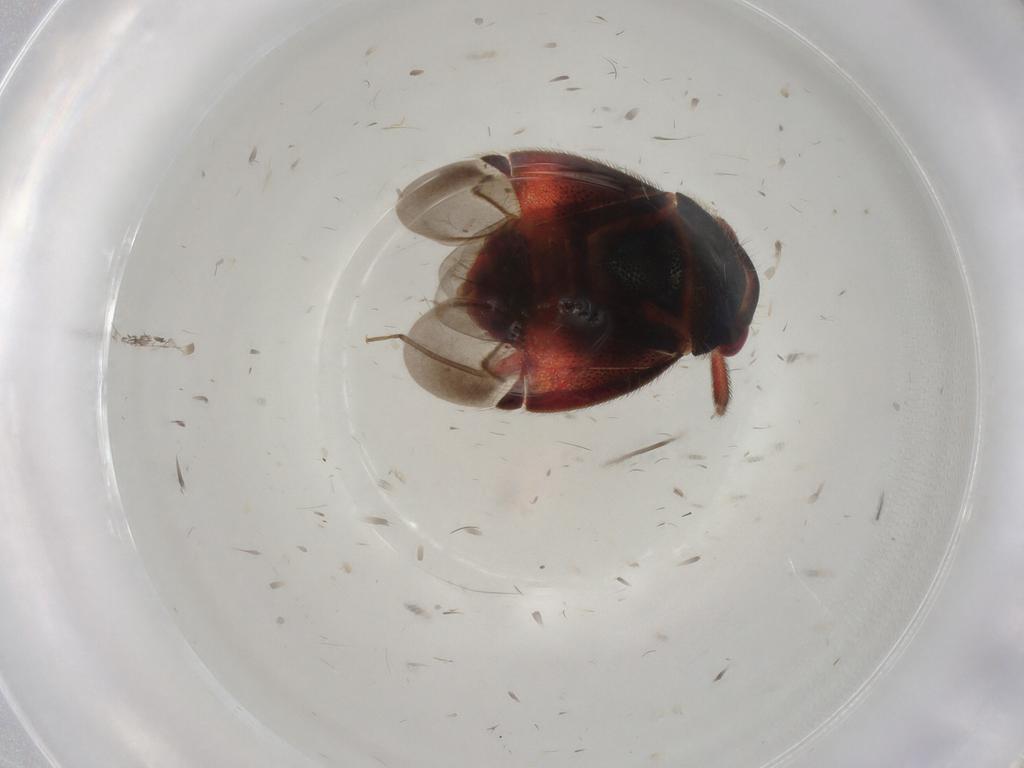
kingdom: Animalia
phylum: Arthropoda
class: Insecta
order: Hemiptera
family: Miridae
